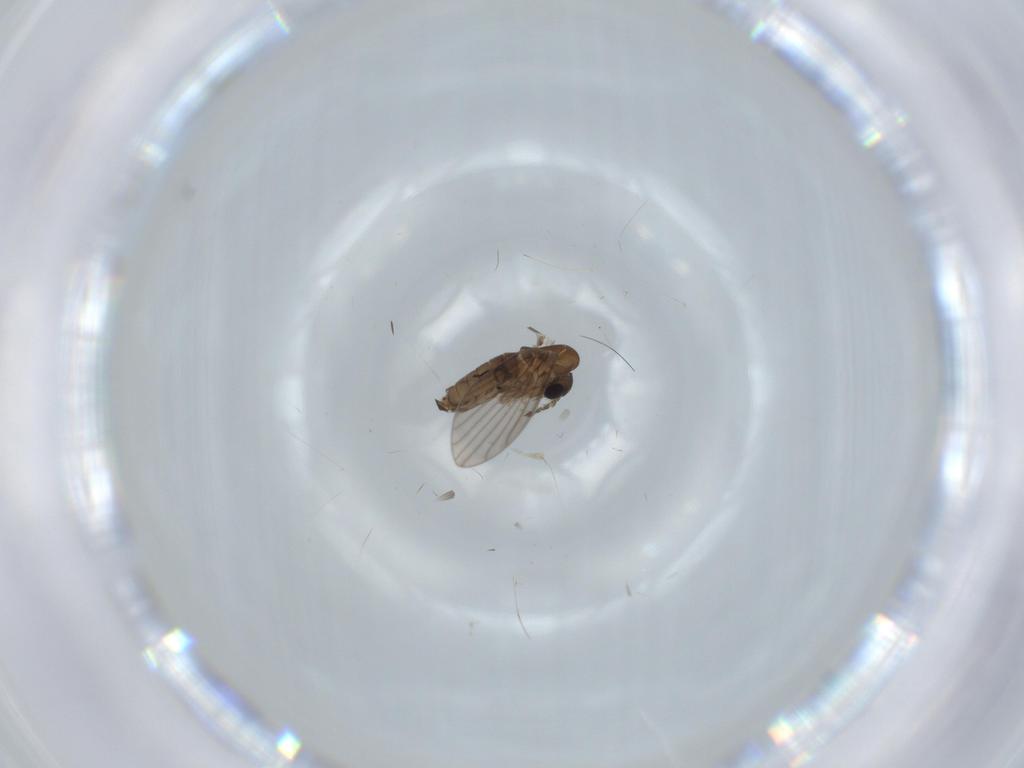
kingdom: Animalia
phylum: Arthropoda
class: Insecta
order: Diptera
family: Psychodidae
